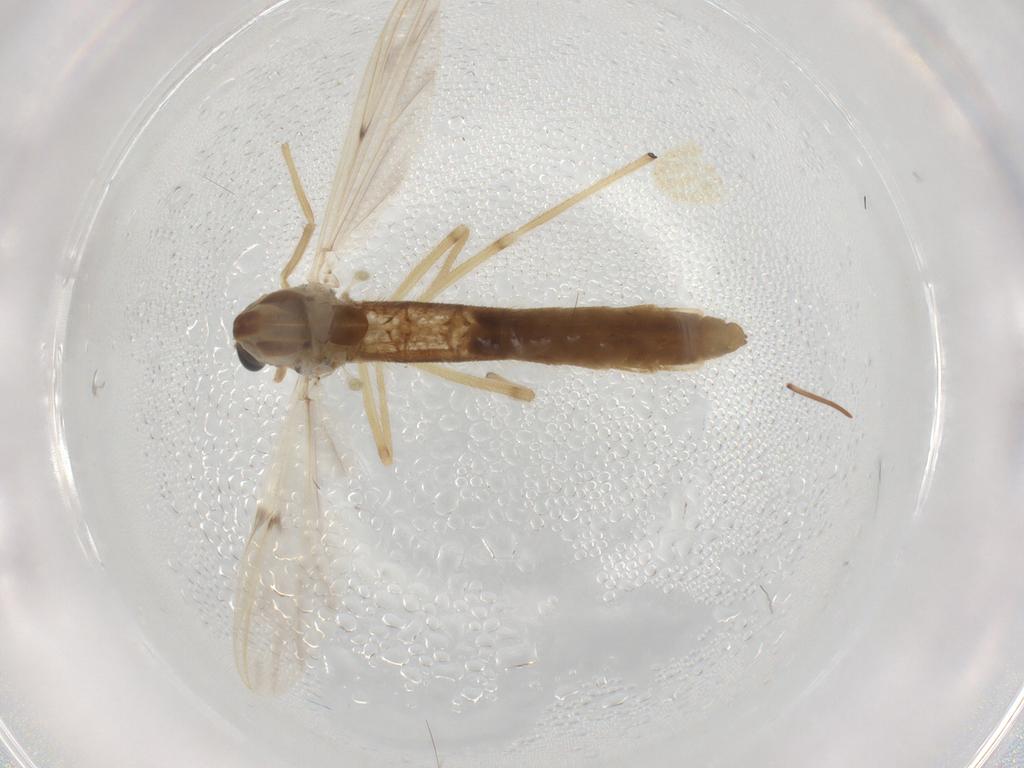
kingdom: Animalia
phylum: Arthropoda
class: Insecta
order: Diptera
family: Chironomidae
